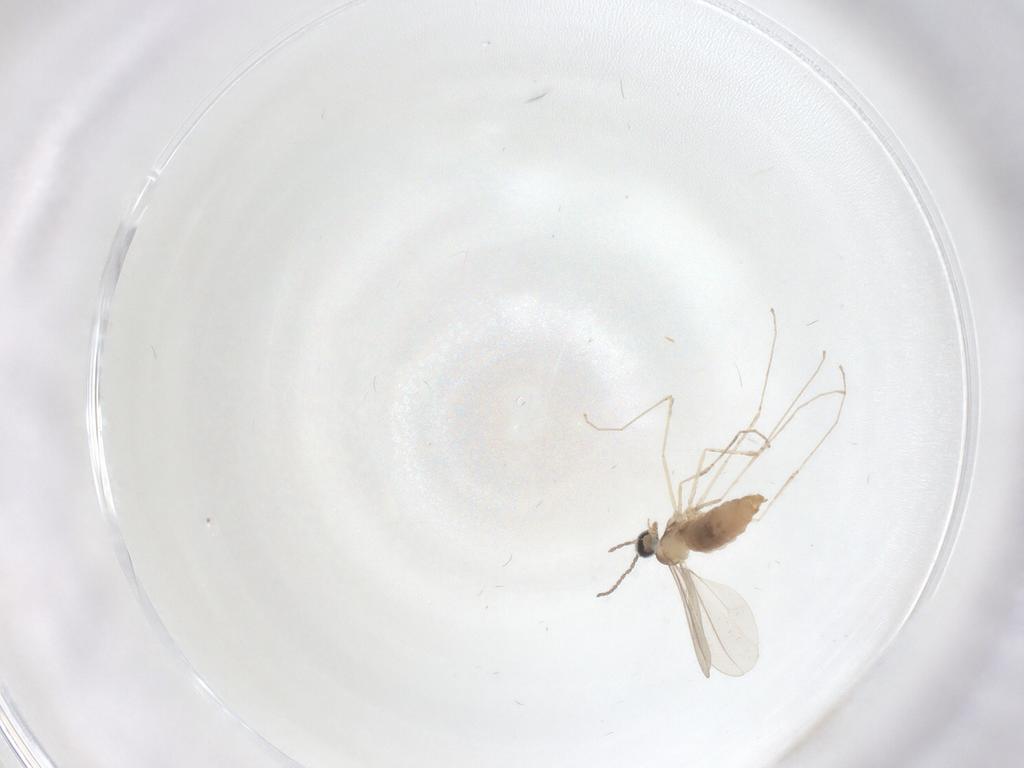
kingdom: Animalia
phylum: Arthropoda
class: Insecta
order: Diptera
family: Cecidomyiidae
